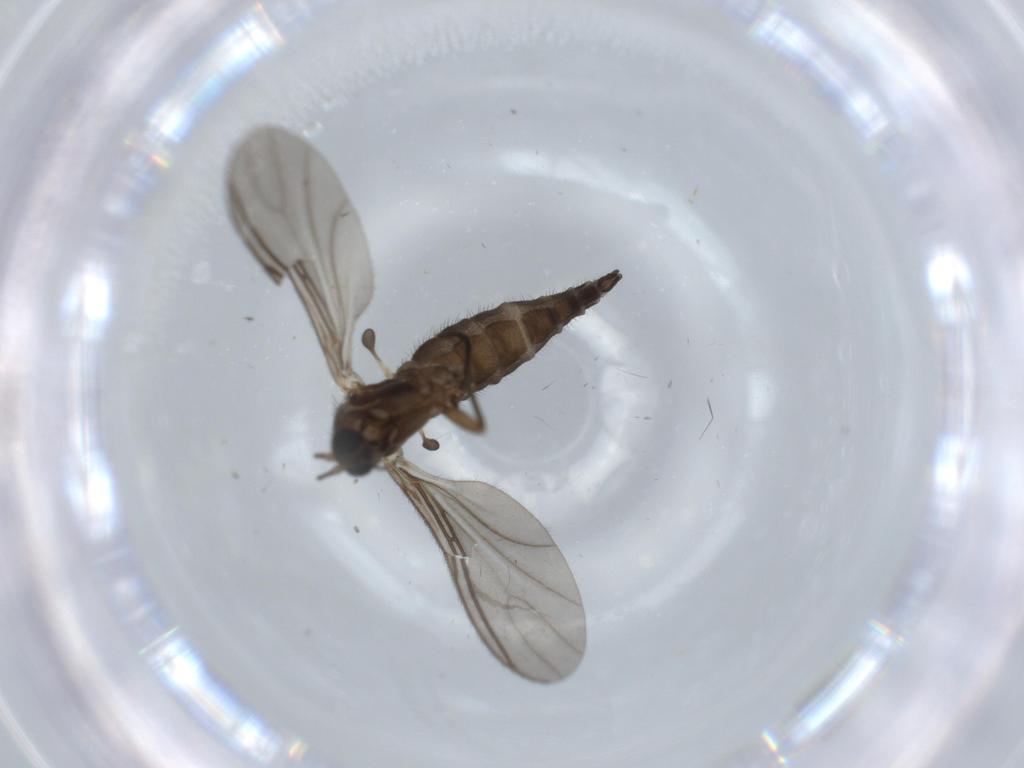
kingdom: Animalia
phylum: Arthropoda
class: Insecta
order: Diptera
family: Sciaridae
